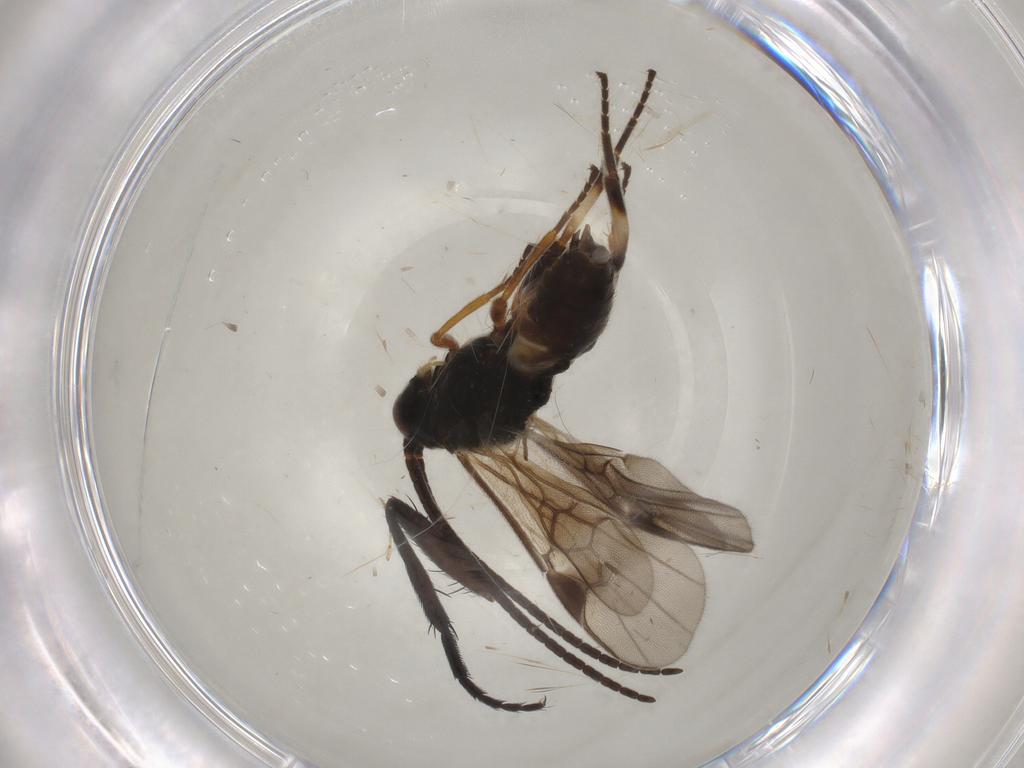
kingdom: Animalia
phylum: Arthropoda
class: Insecta
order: Hymenoptera
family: Braconidae
